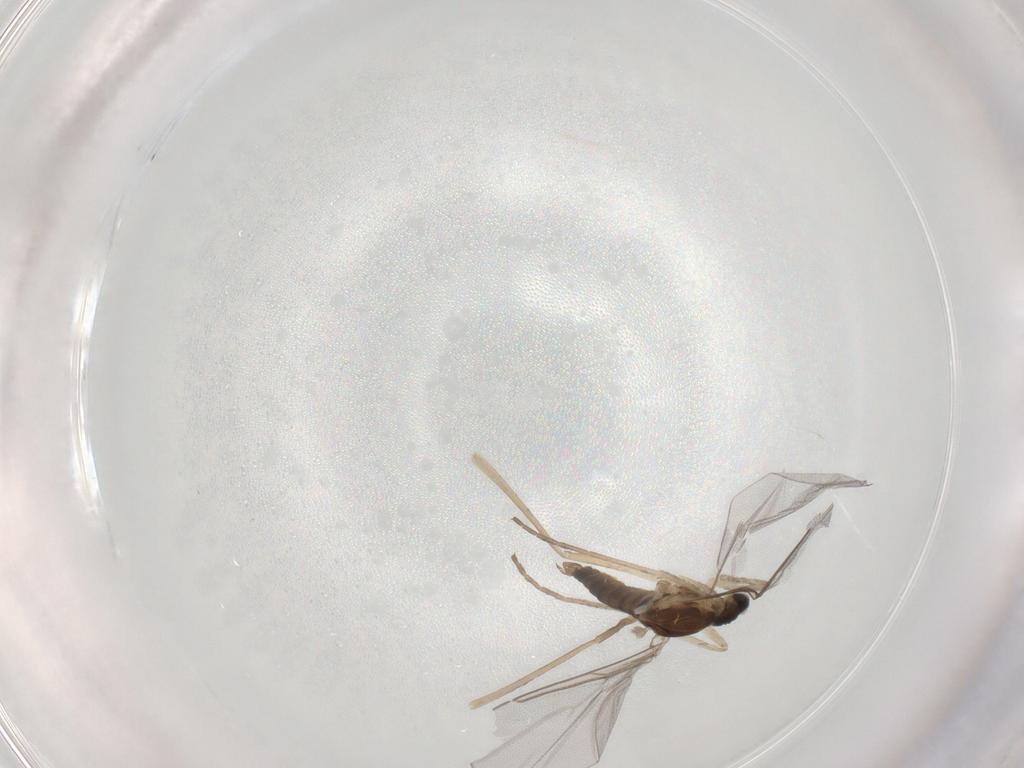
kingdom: Animalia
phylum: Arthropoda
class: Insecta
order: Diptera
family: Cecidomyiidae
